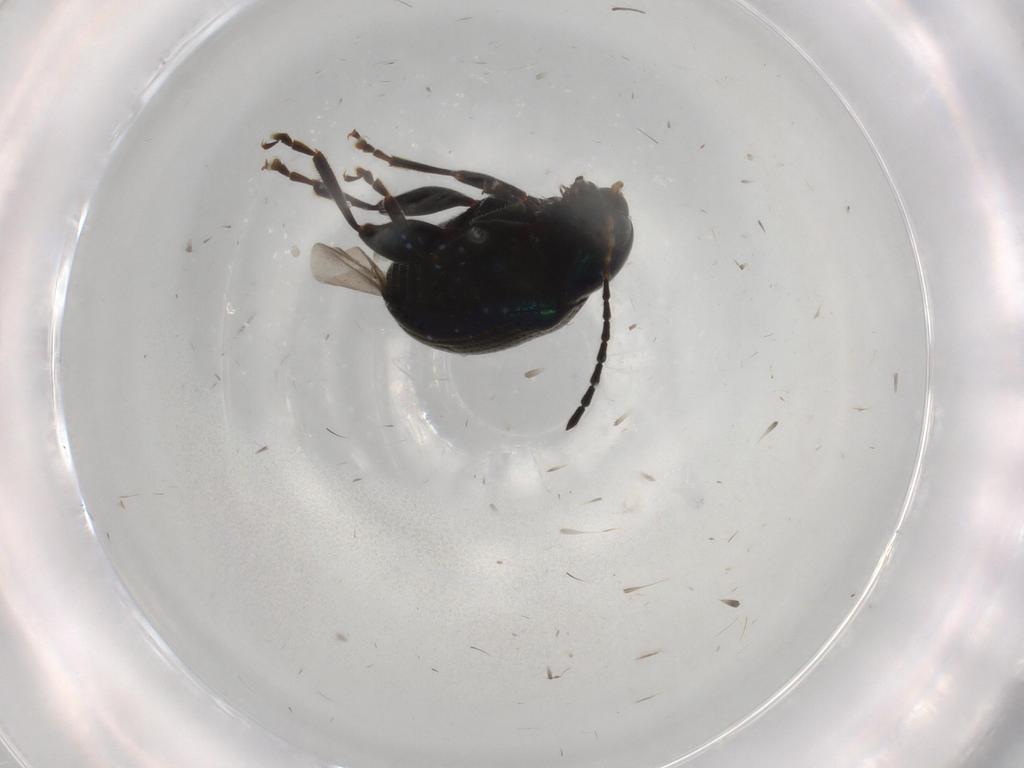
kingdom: Animalia
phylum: Arthropoda
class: Insecta
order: Coleoptera
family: Chrysomelidae
